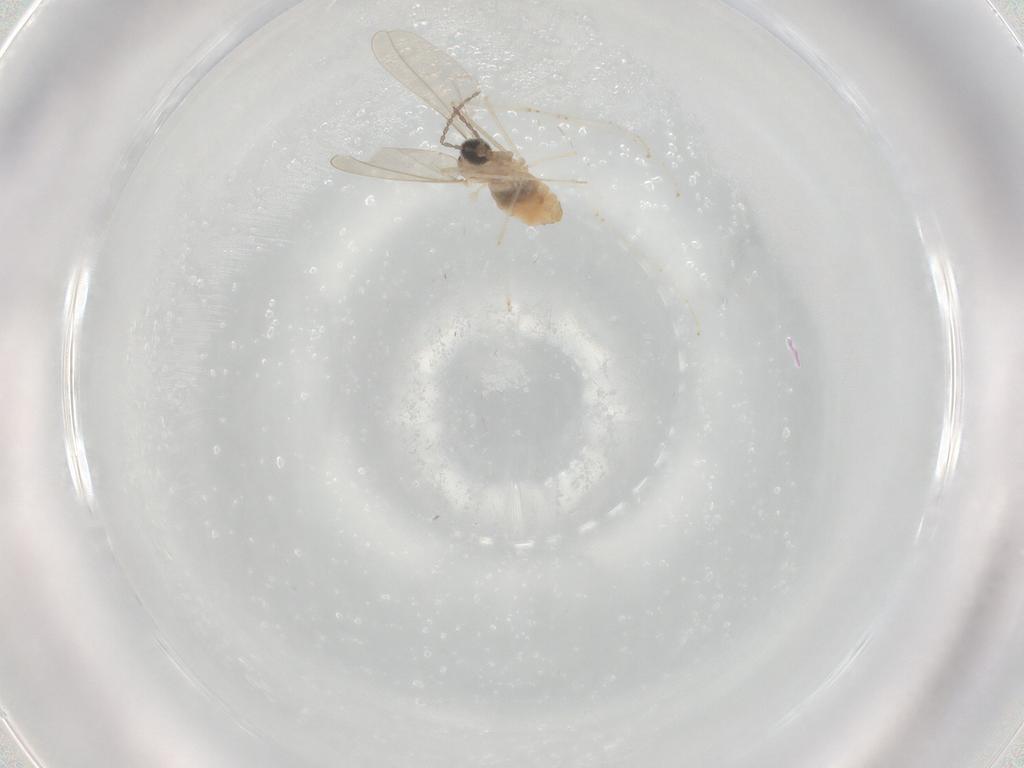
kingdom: Animalia
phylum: Arthropoda
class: Insecta
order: Diptera
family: Cecidomyiidae
